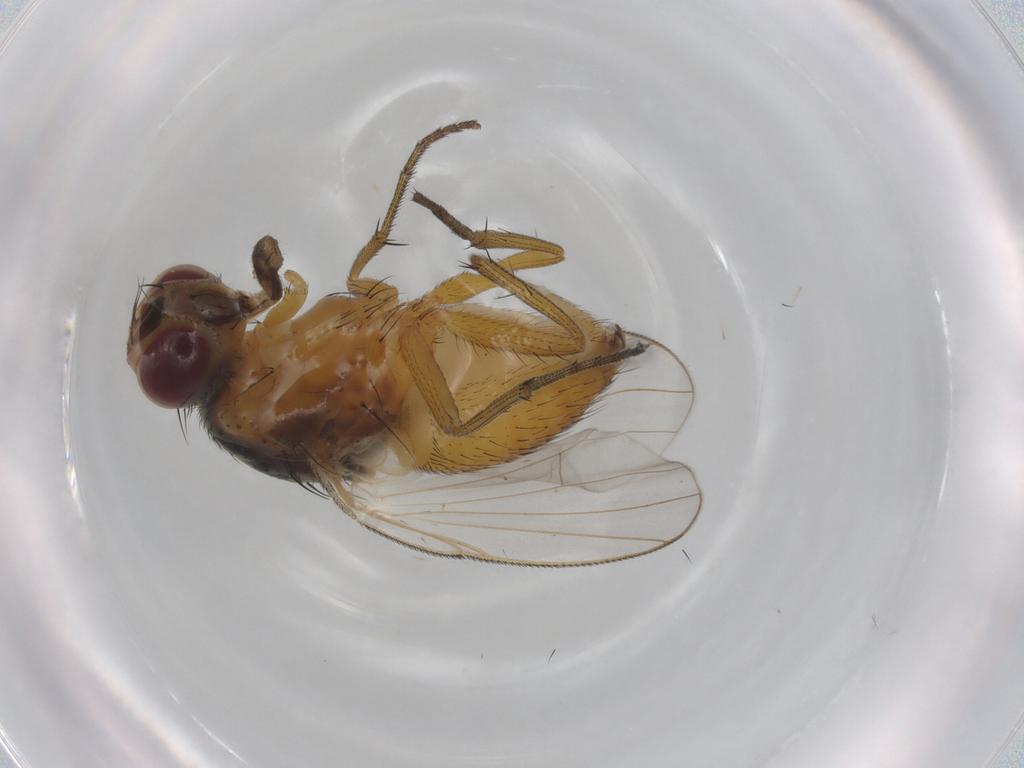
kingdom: Animalia
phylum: Arthropoda
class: Insecta
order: Diptera
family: Muscidae
